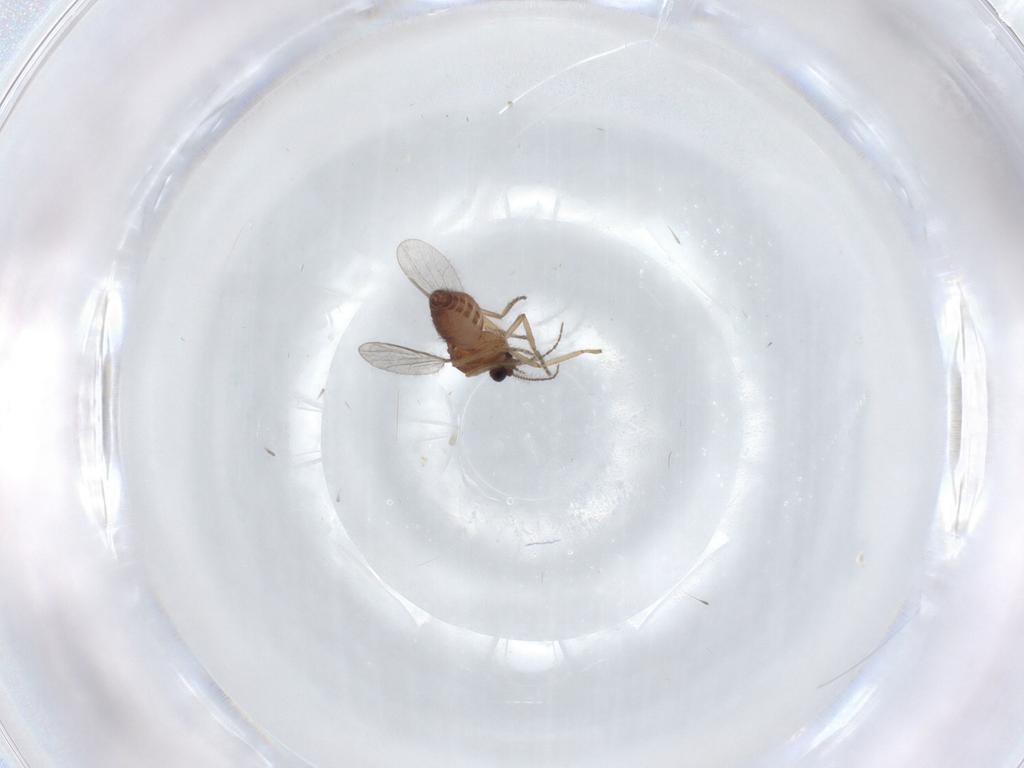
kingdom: Animalia
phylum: Arthropoda
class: Insecta
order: Diptera
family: Ceratopogonidae
